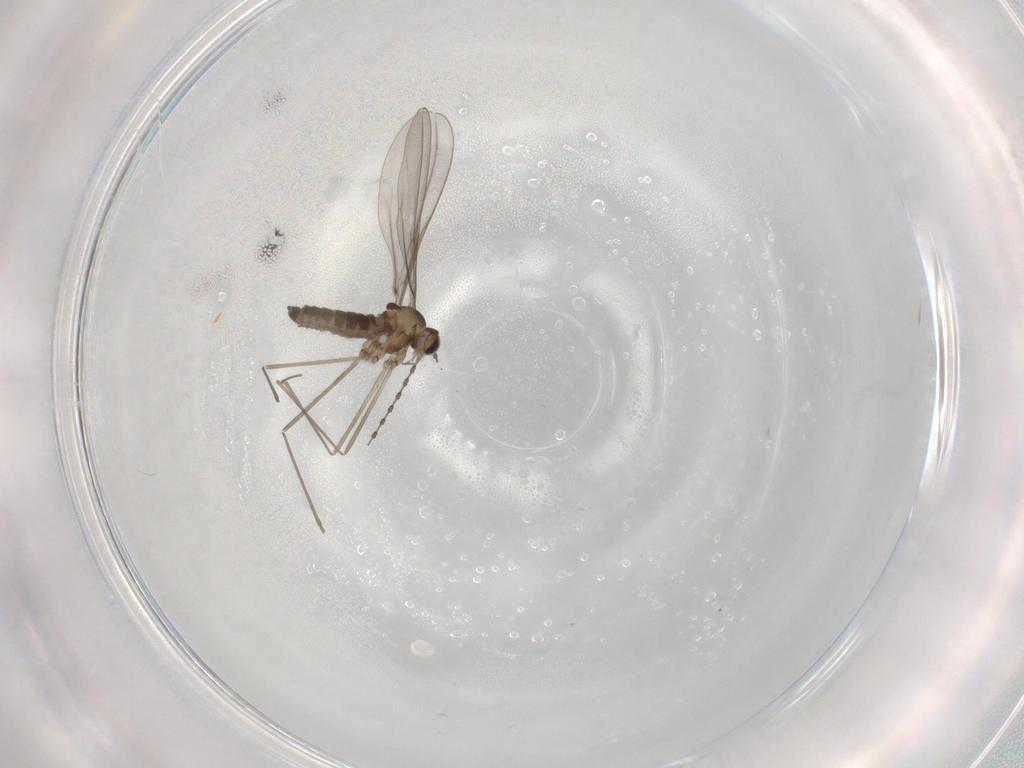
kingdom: Animalia
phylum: Arthropoda
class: Insecta
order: Diptera
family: Cecidomyiidae
